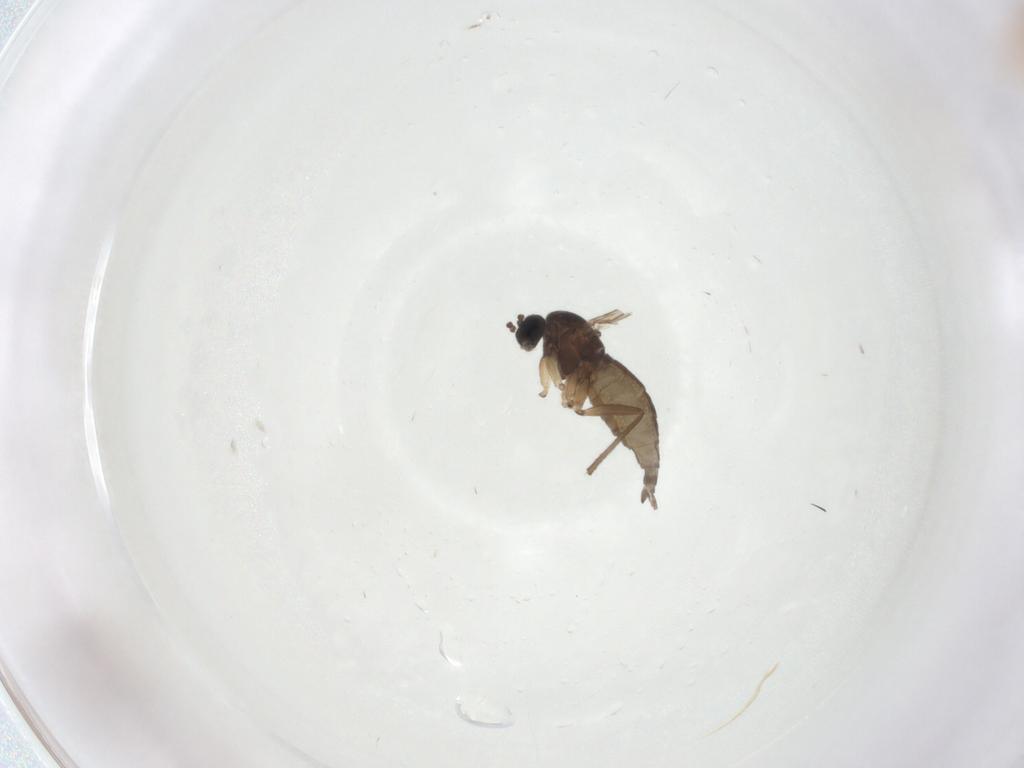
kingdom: Animalia
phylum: Arthropoda
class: Insecta
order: Diptera
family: Sciaridae
